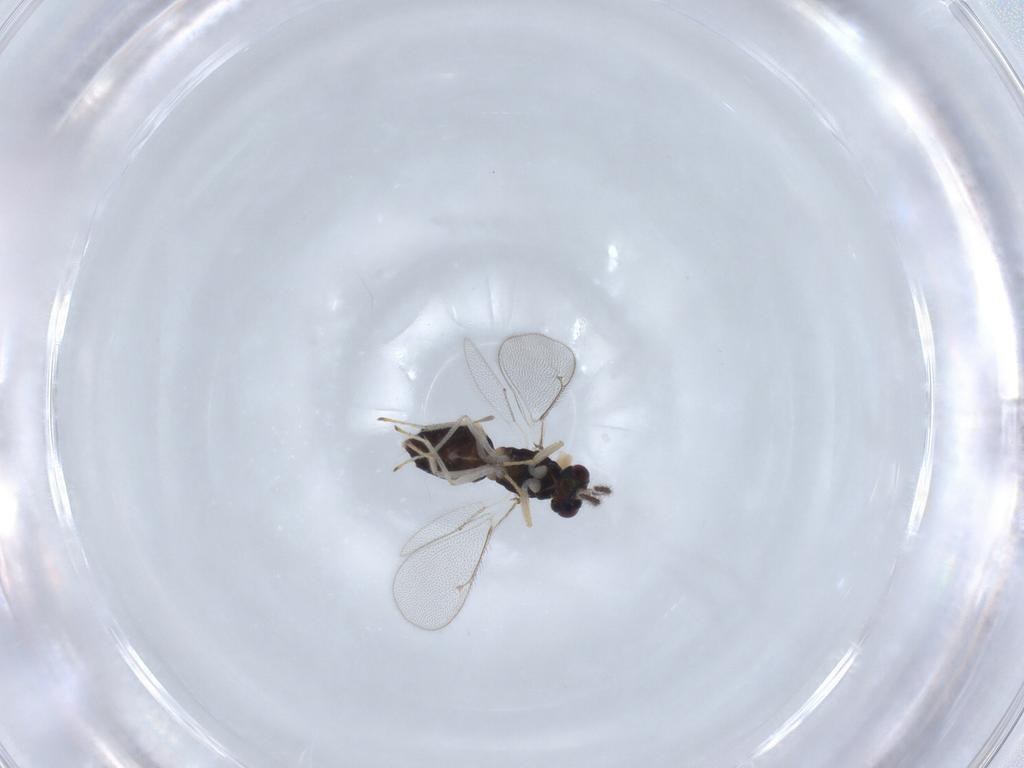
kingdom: Animalia
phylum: Arthropoda
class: Insecta
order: Hymenoptera
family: Eulophidae
